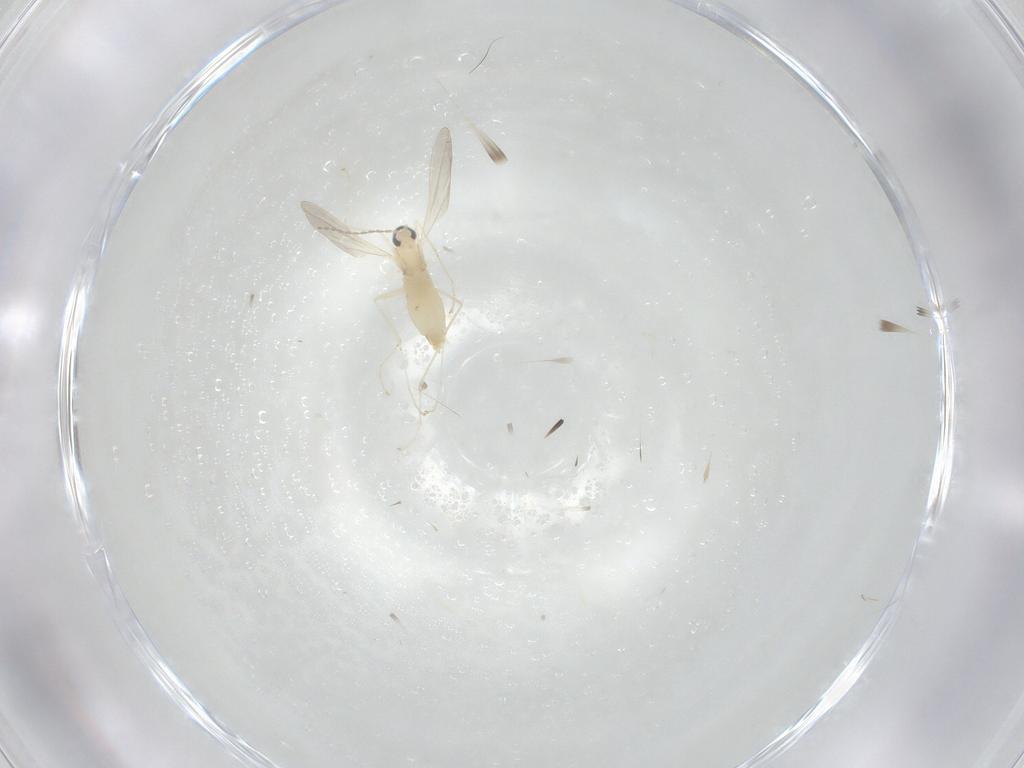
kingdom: Animalia
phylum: Arthropoda
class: Insecta
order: Diptera
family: Cecidomyiidae
